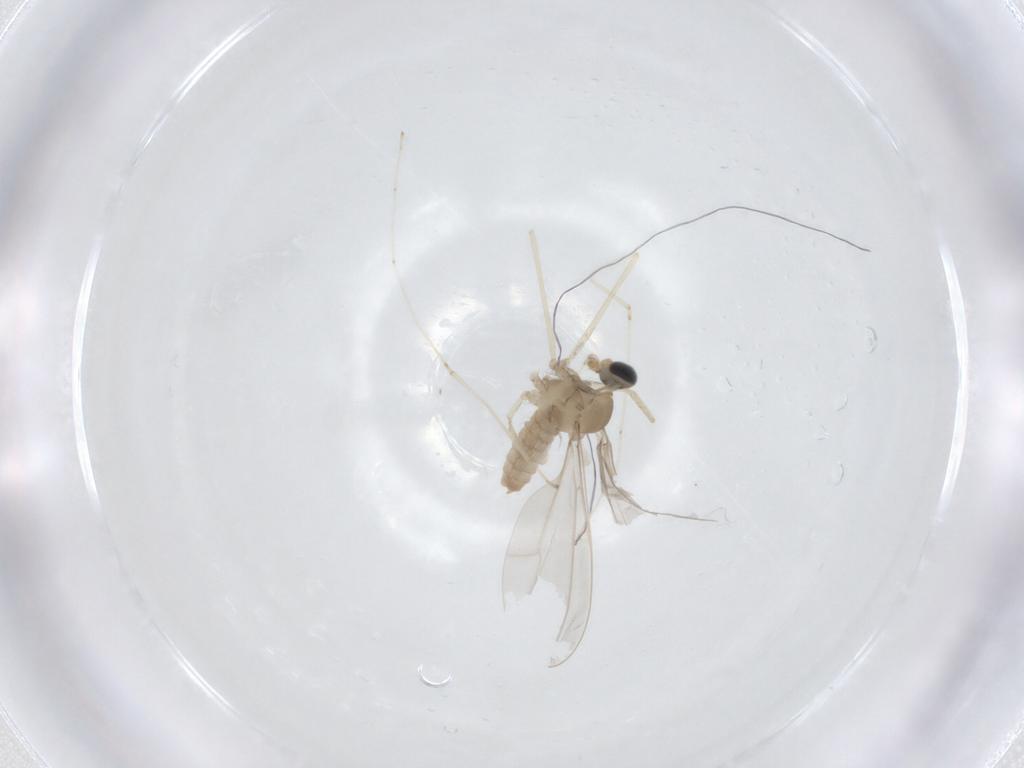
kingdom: Animalia
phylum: Arthropoda
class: Insecta
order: Diptera
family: Cecidomyiidae
